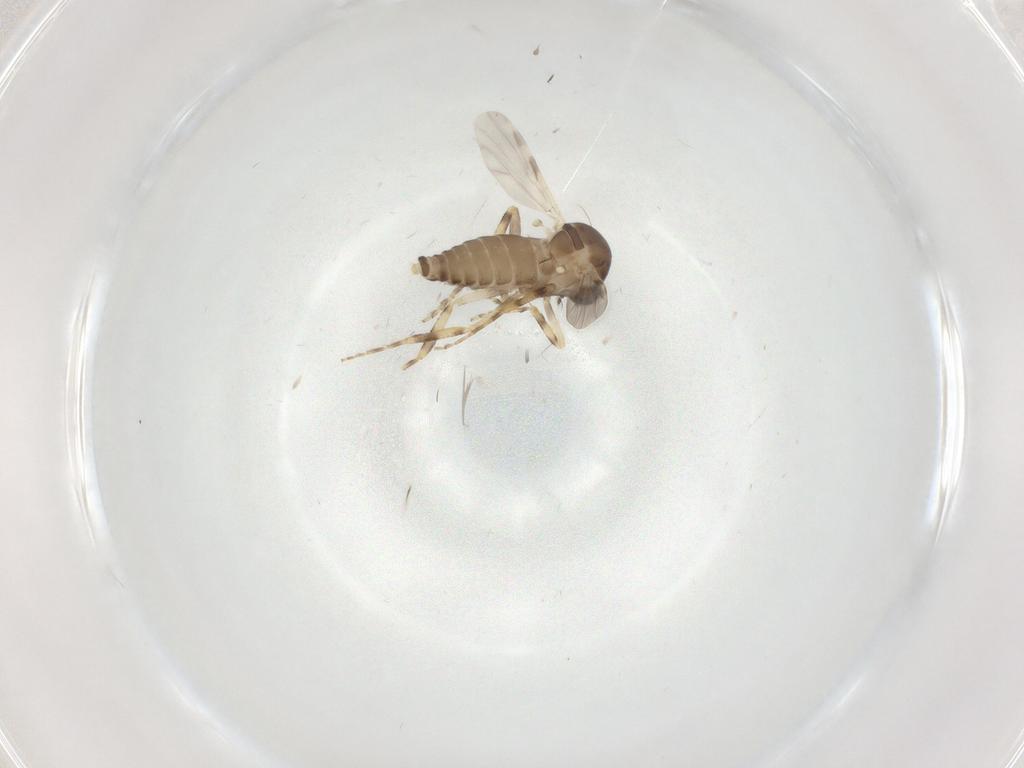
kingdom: Animalia
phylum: Arthropoda
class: Insecta
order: Diptera
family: Ceratopogonidae
